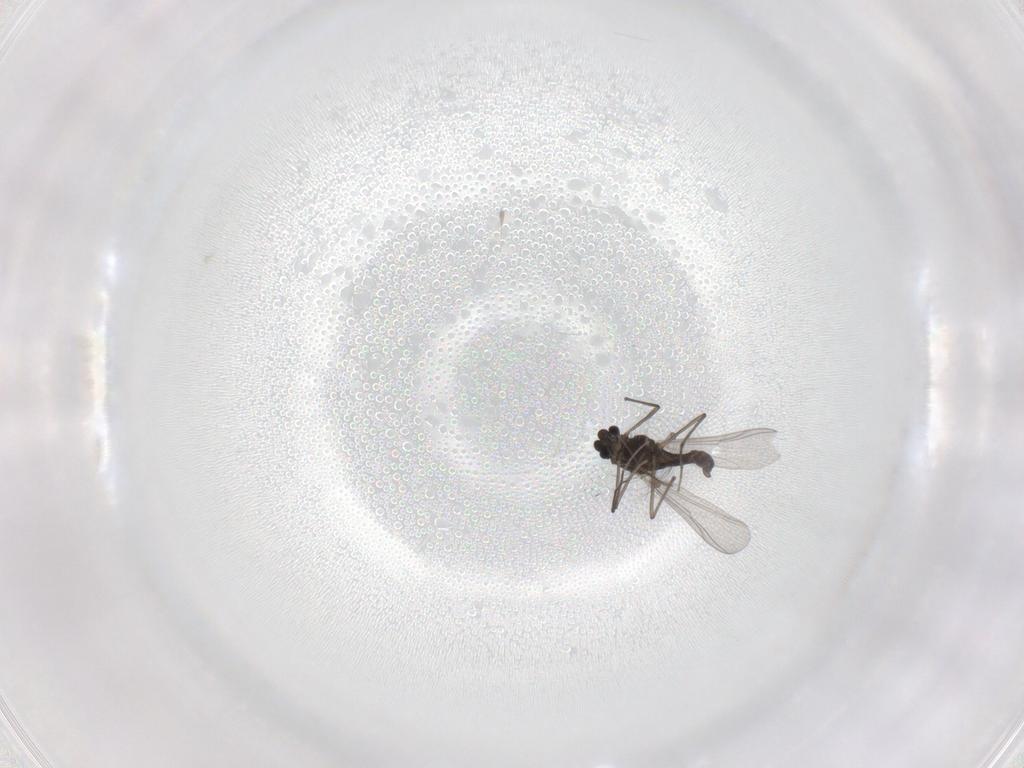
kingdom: Animalia
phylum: Arthropoda
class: Insecta
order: Diptera
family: Chironomidae
